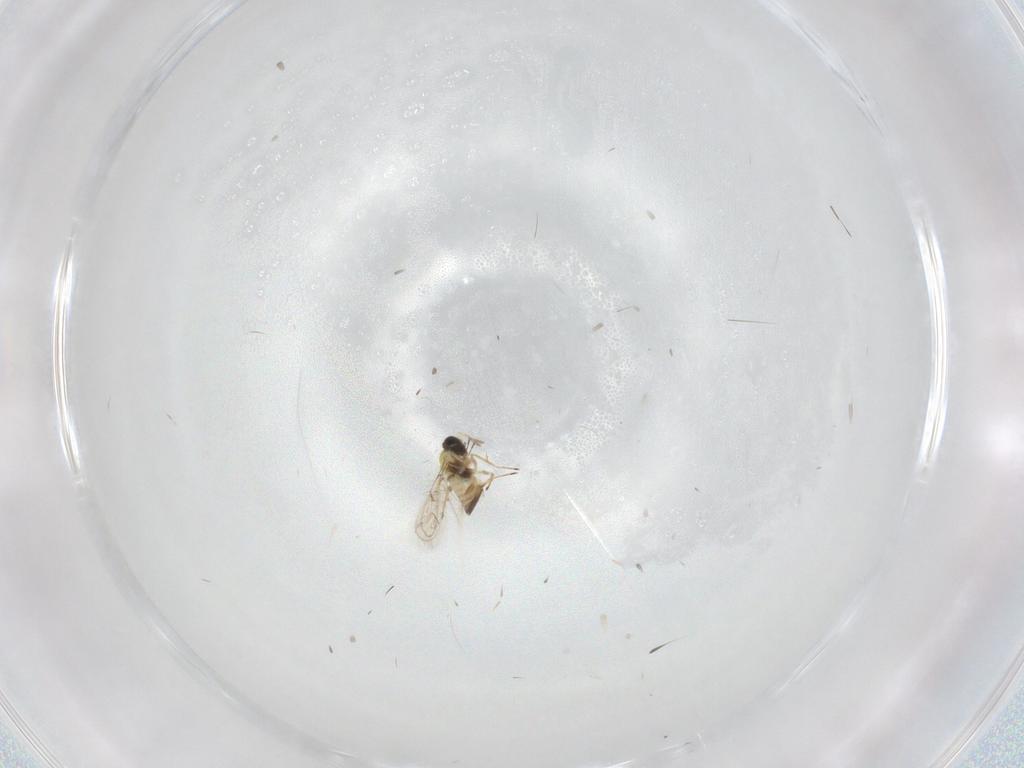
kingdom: Animalia
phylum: Arthropoda
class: Insecta
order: Hymenoptera
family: Trichogrammatidae
